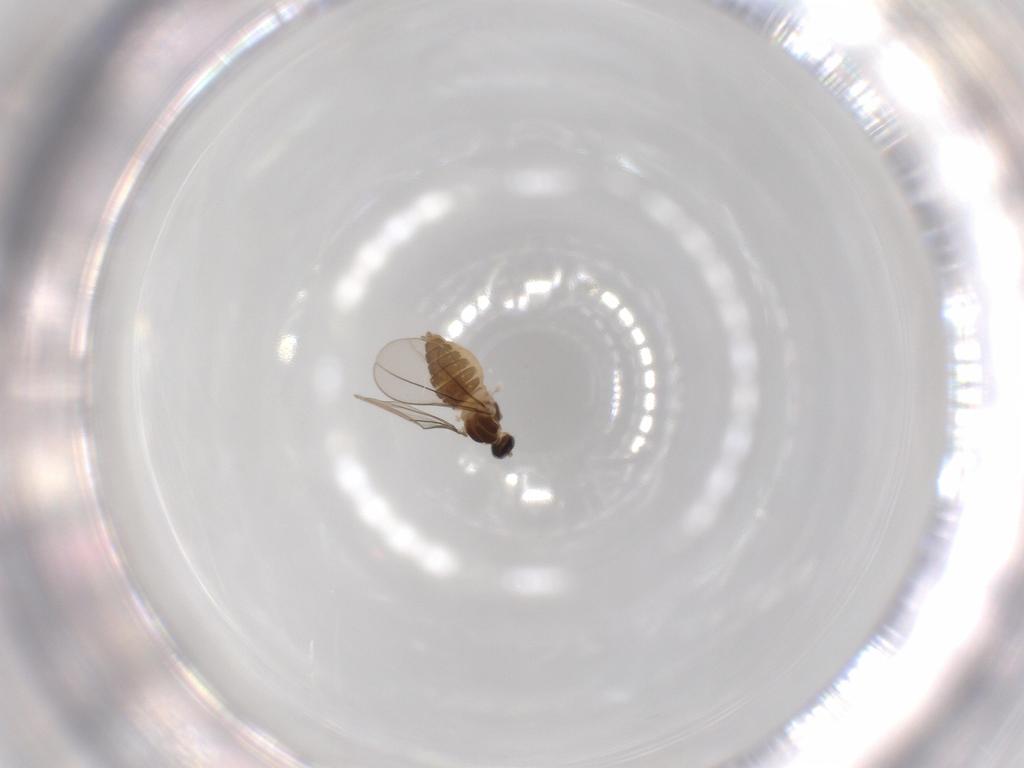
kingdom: Animalia
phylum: Arthropoda
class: Insecta
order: Diptera
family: Cecidomyiidae
